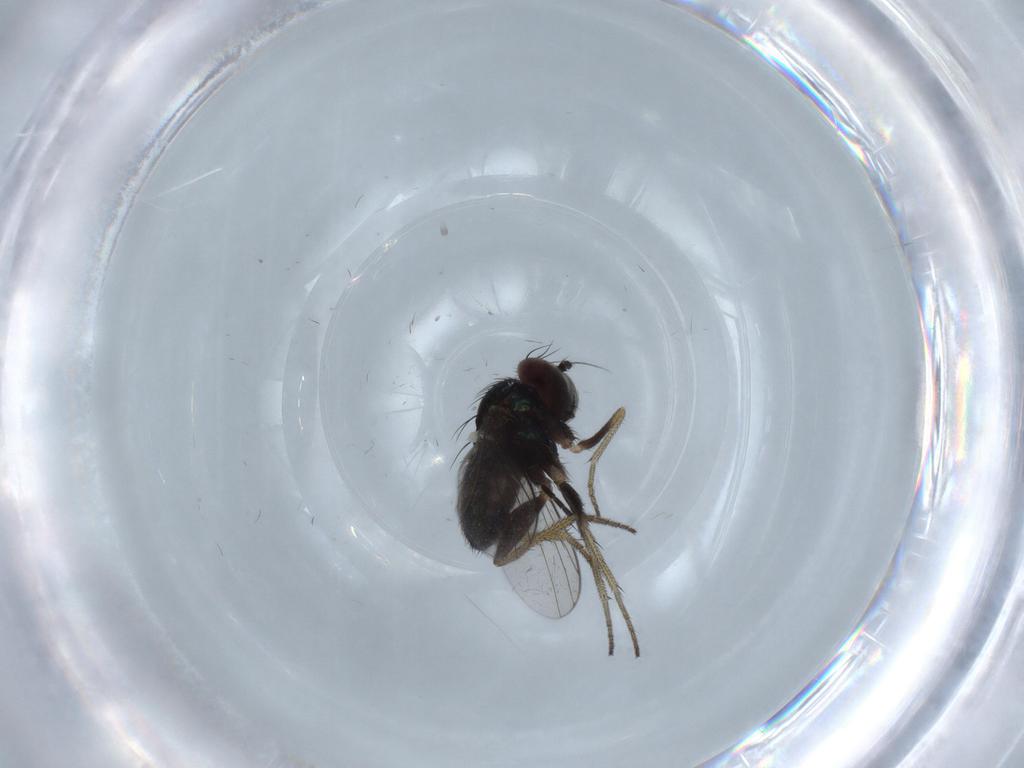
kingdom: Animalia
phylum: Arthropoda
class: Insecta
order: Diptera
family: Dolichopodidae
